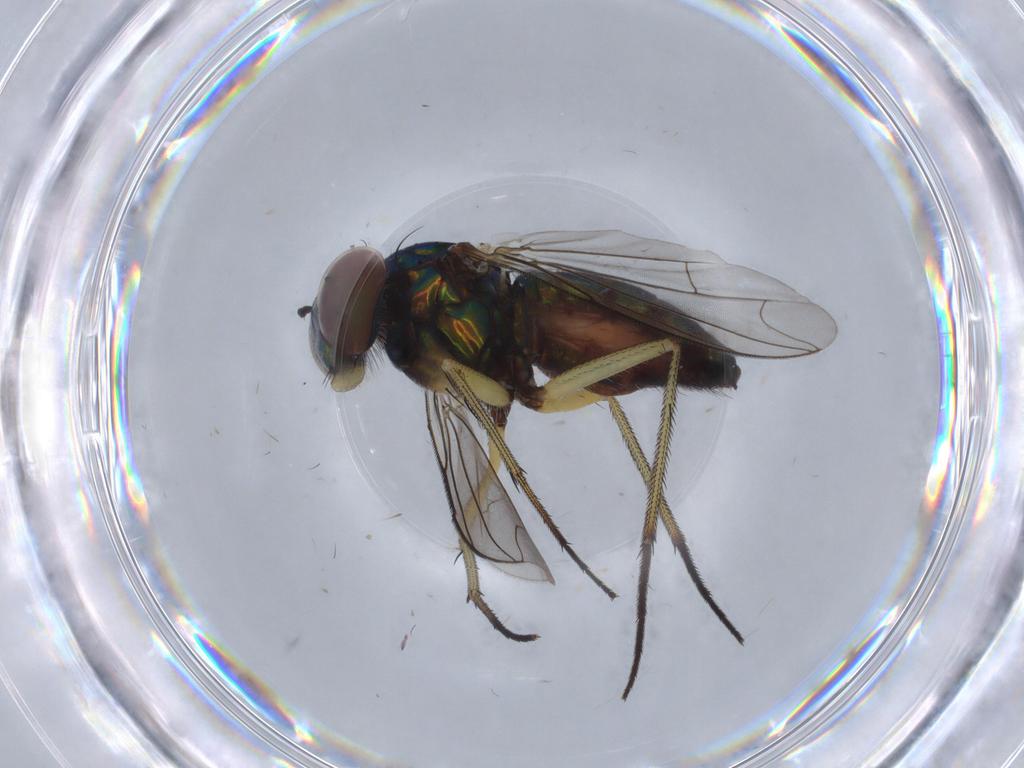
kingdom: Animalia
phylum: Arthropoda
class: Insecta
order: Diptera
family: Dolichopodidae
